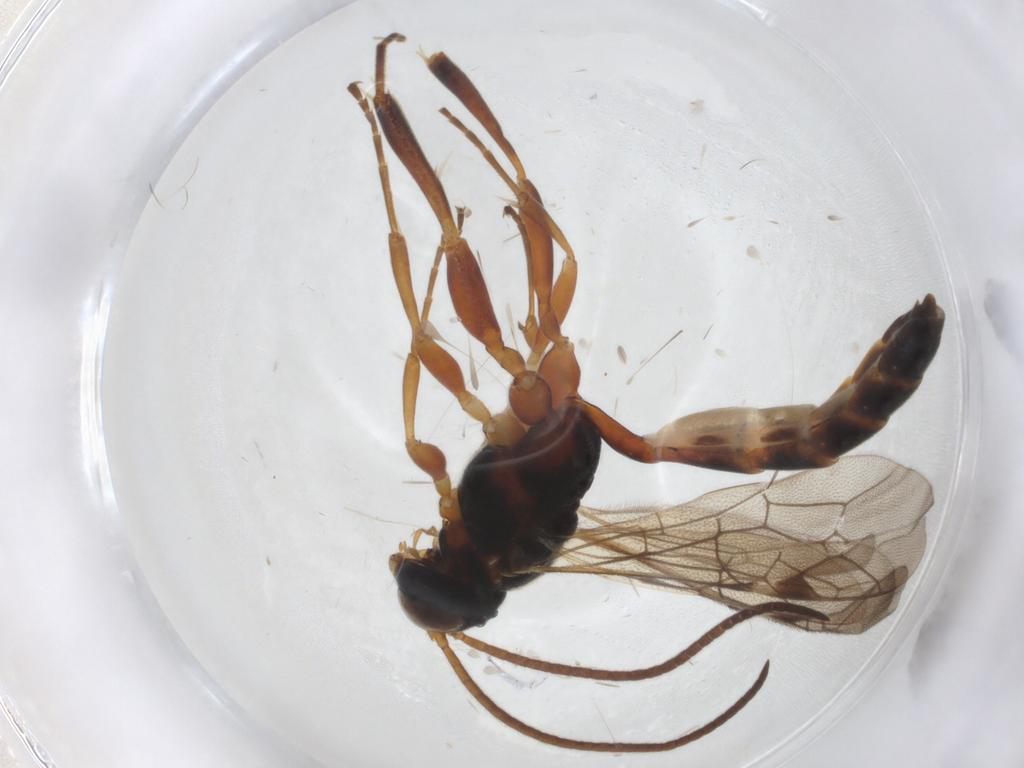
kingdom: Animalia
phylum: Arthropoda
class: Insecta
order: Hymenoptera
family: Ichneumonidae
